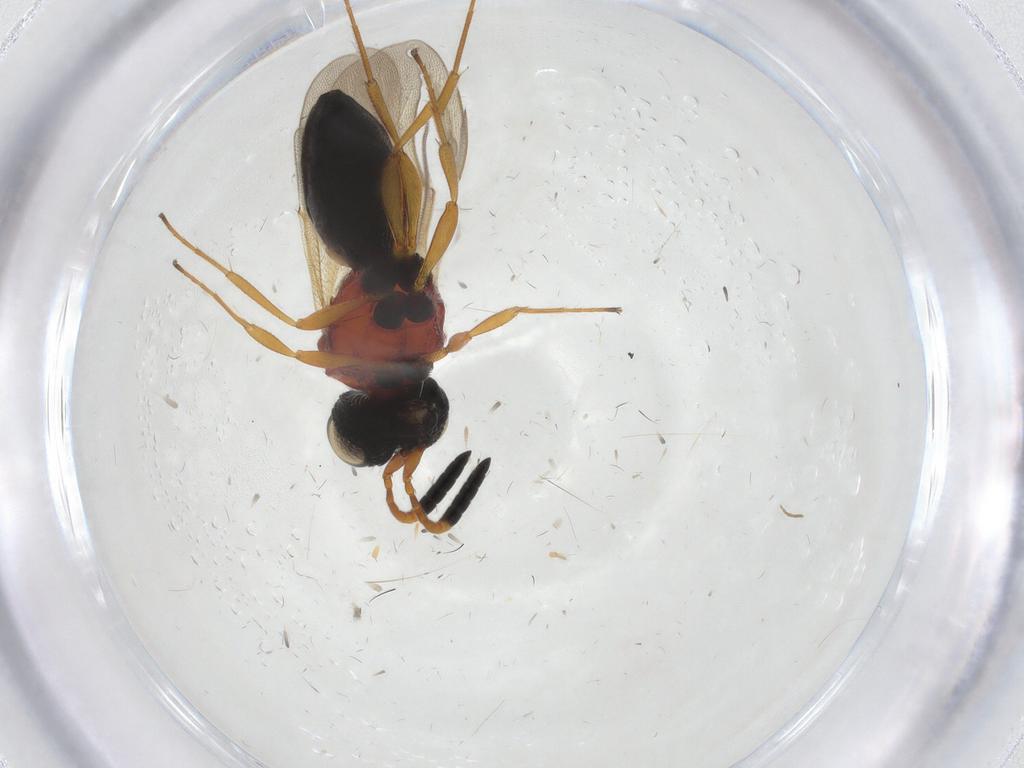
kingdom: Animalia
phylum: Arthropoda
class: Insecta
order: Hymenoptera
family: Scelionidae
